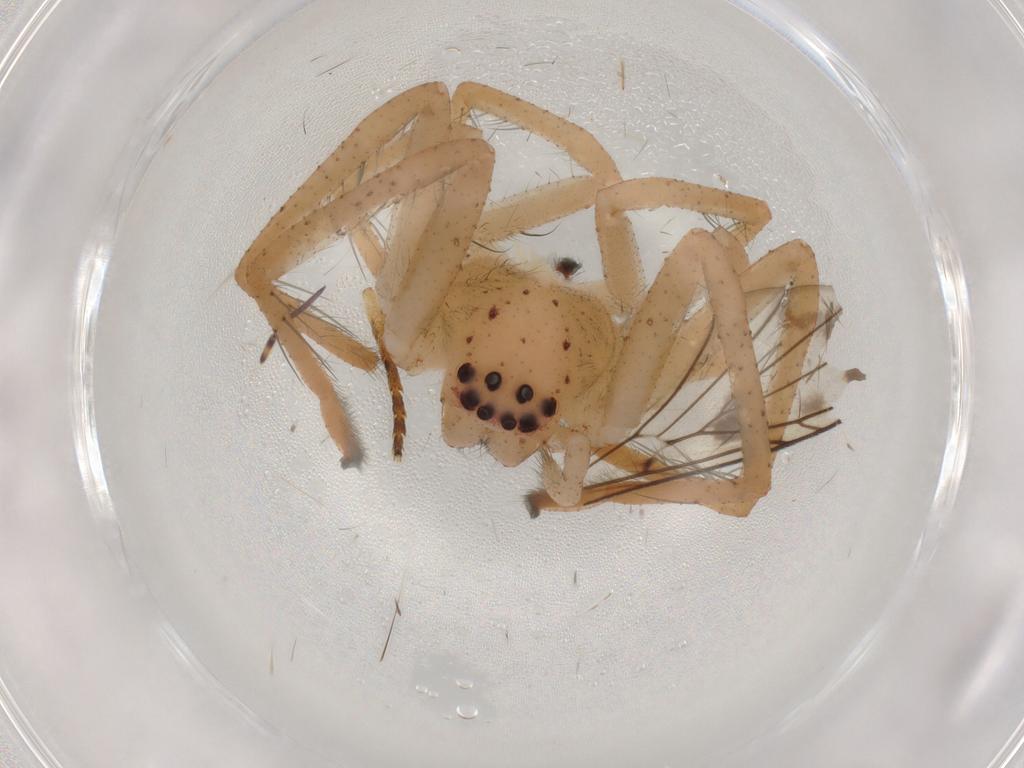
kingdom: Animalia
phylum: Arthropoda
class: Arachnida
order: Araneae
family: Sparassidae
